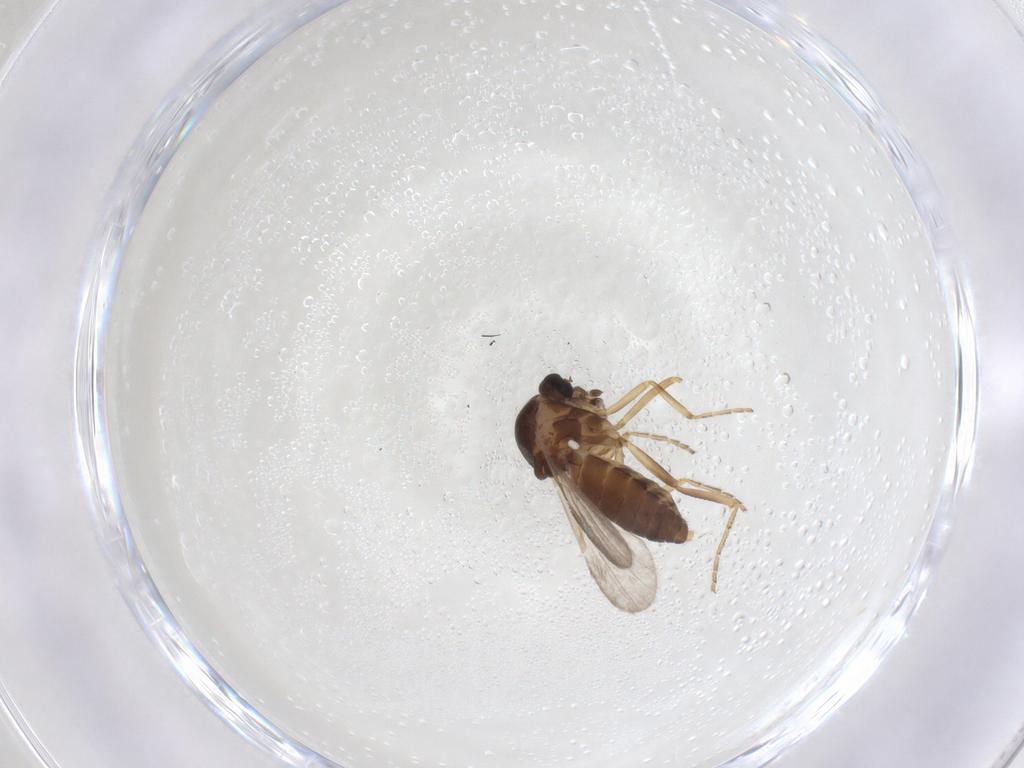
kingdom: Animalia
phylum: Arthropoda
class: Insecta
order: Diptera
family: Ceratopogonidae
